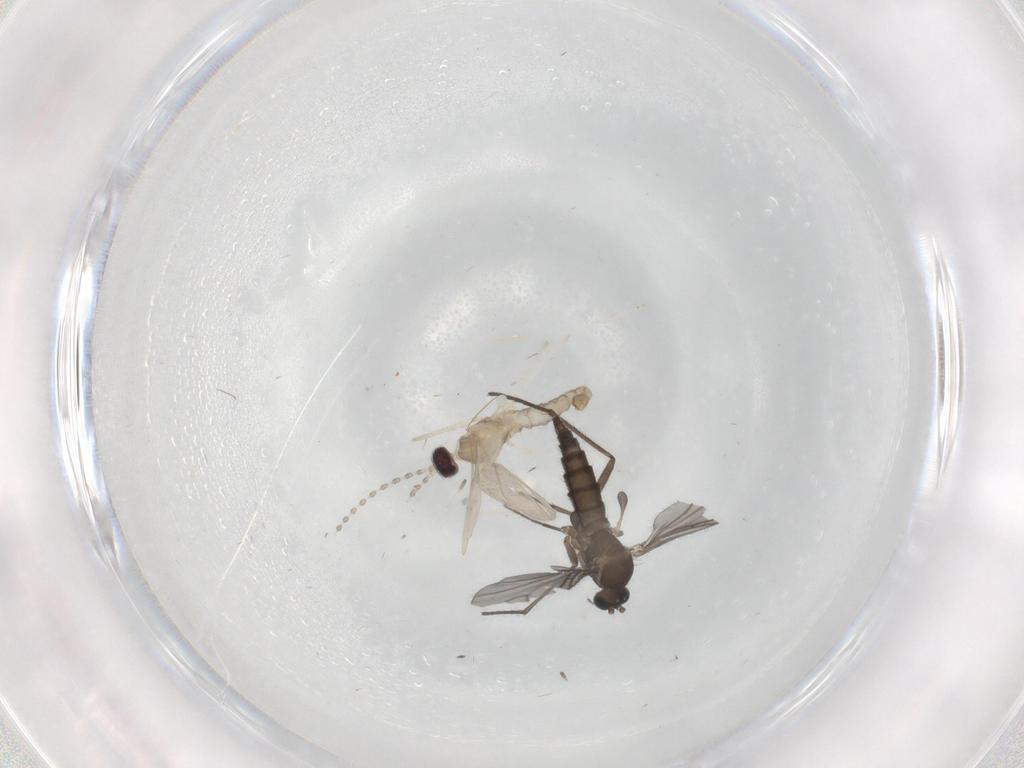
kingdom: Animalia
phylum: Arthropoda
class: Insecta
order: Diptera
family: Cecidomyiidae
